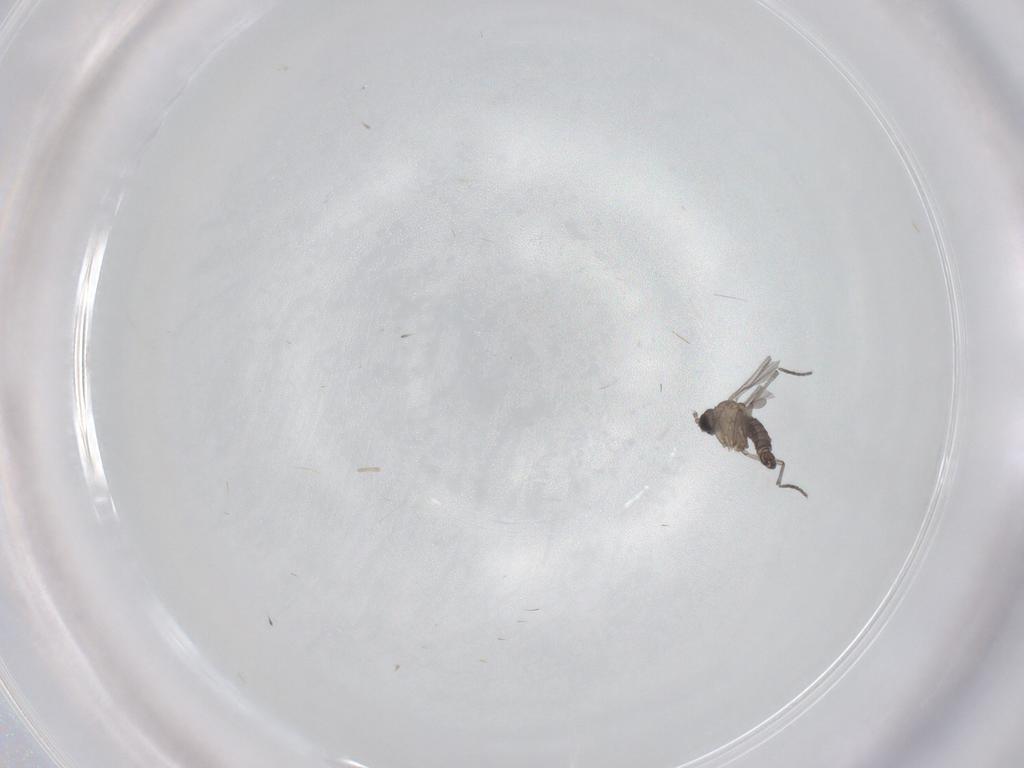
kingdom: Animalia
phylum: Arthropoda
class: Insecta
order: Diptera
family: Sciaridae
